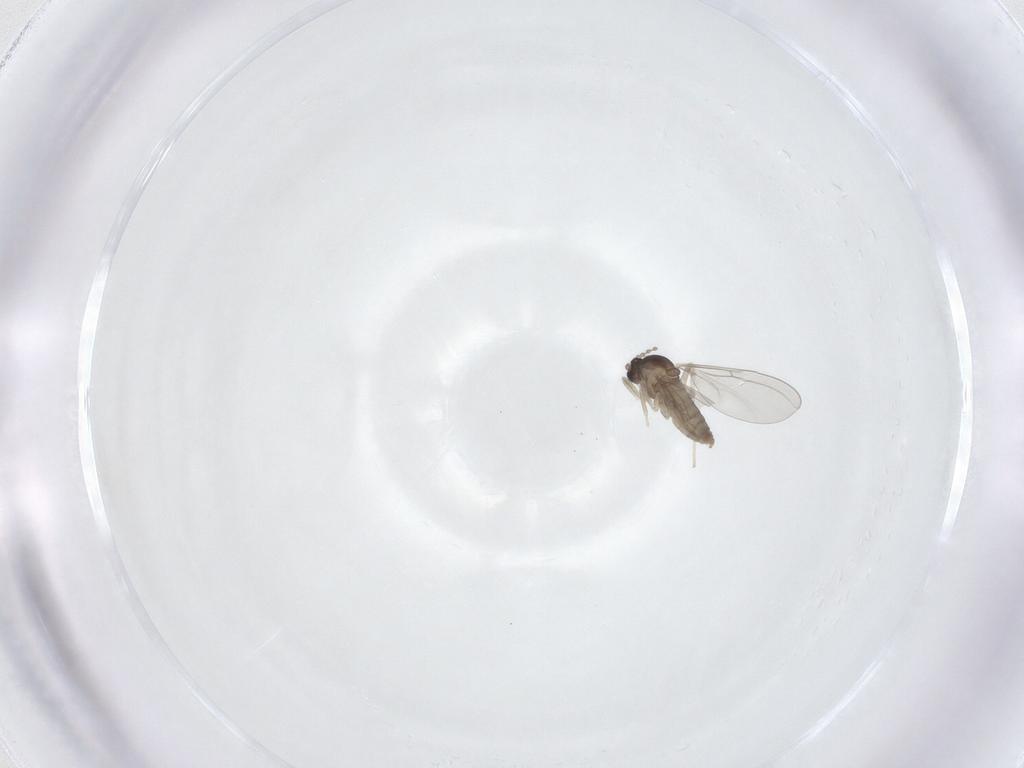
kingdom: Animalia
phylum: Arthropoda
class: Insecta
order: Diptera
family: Cecidomyiidae
